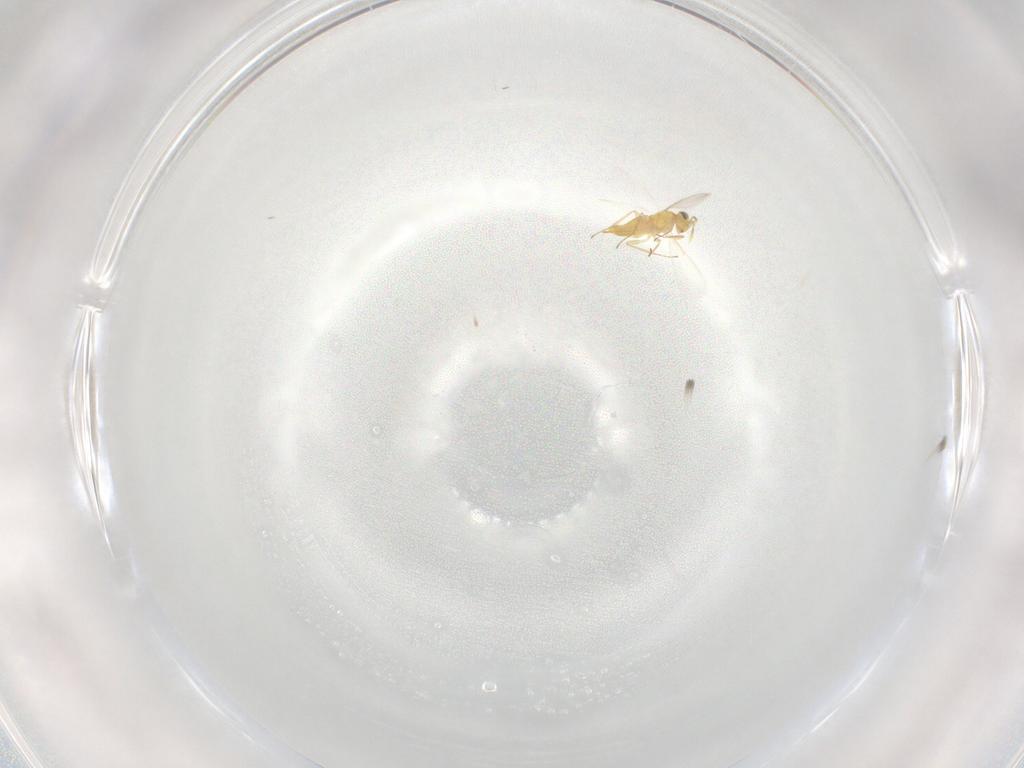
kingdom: Animalia
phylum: Arthropoda
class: Insecta
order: Hymenoptera
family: Aphelinidae
